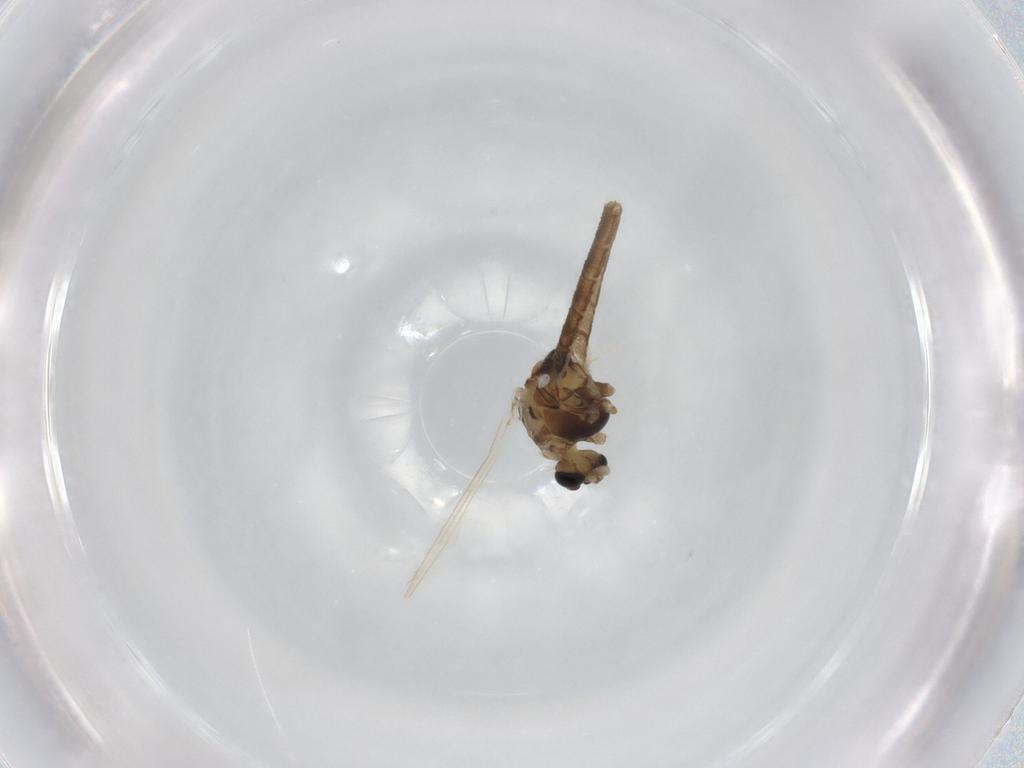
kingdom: Animalia
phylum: Arthropoda
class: Insecta
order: Diptera
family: Chironomidae
